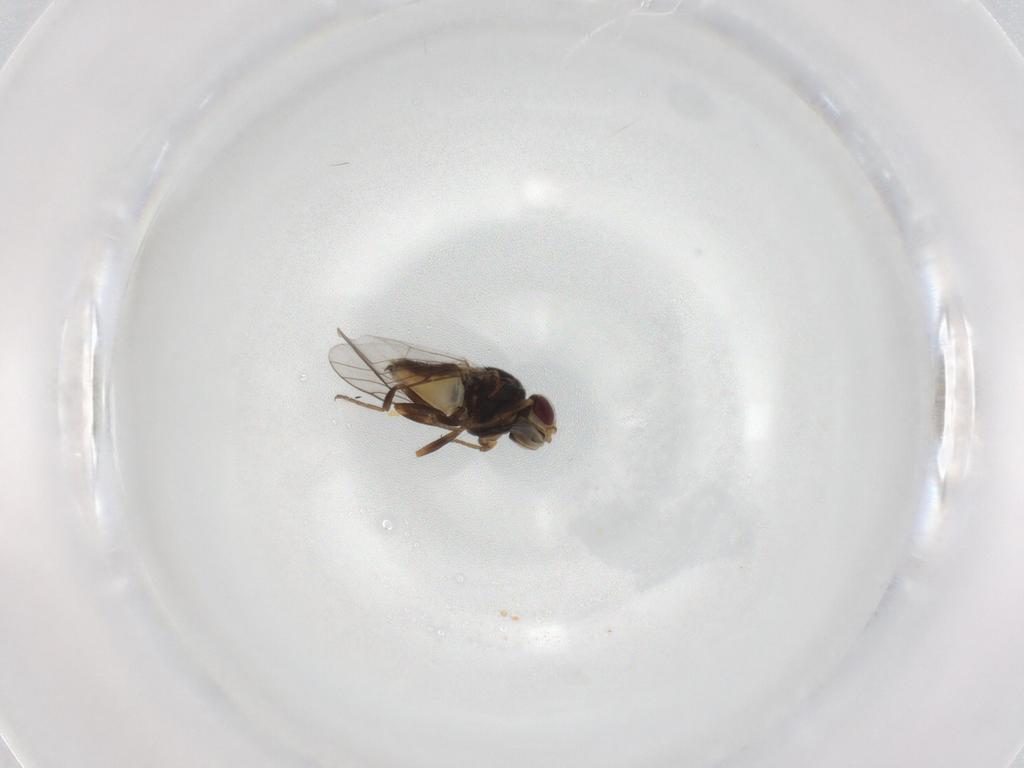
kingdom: Animalia
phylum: Arthropoda
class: Insecta
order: Diptera
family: Chloropidae
